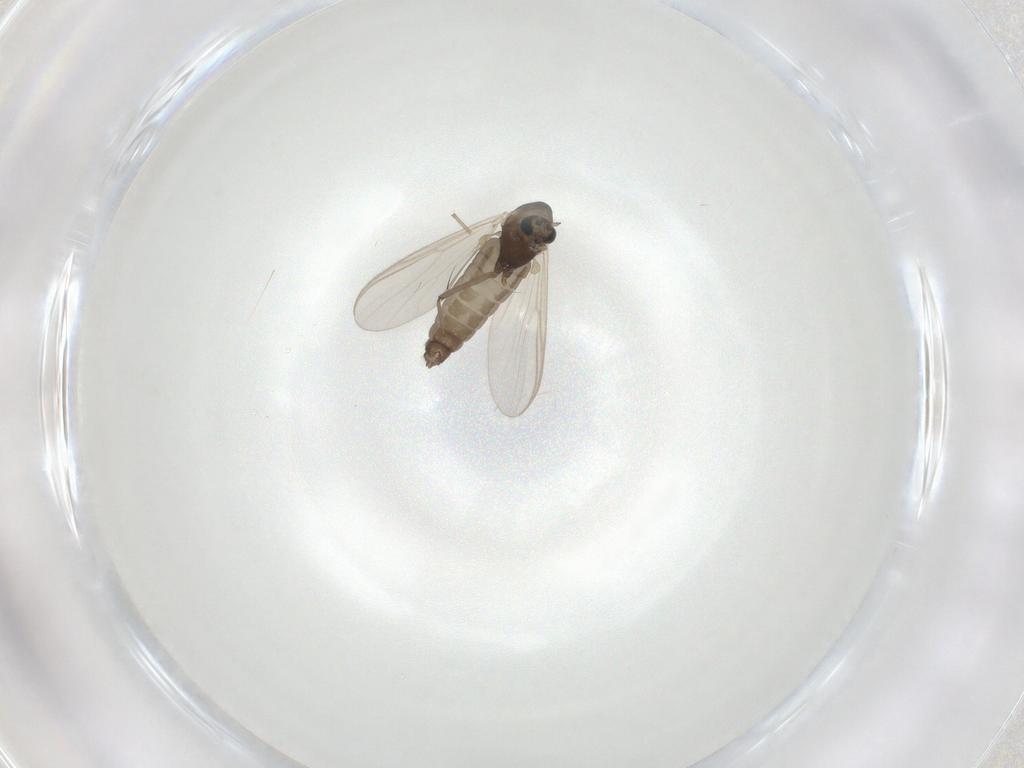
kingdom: Animalia
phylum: Arthropoda
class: Insecta
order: Diptera
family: Chironomidae
